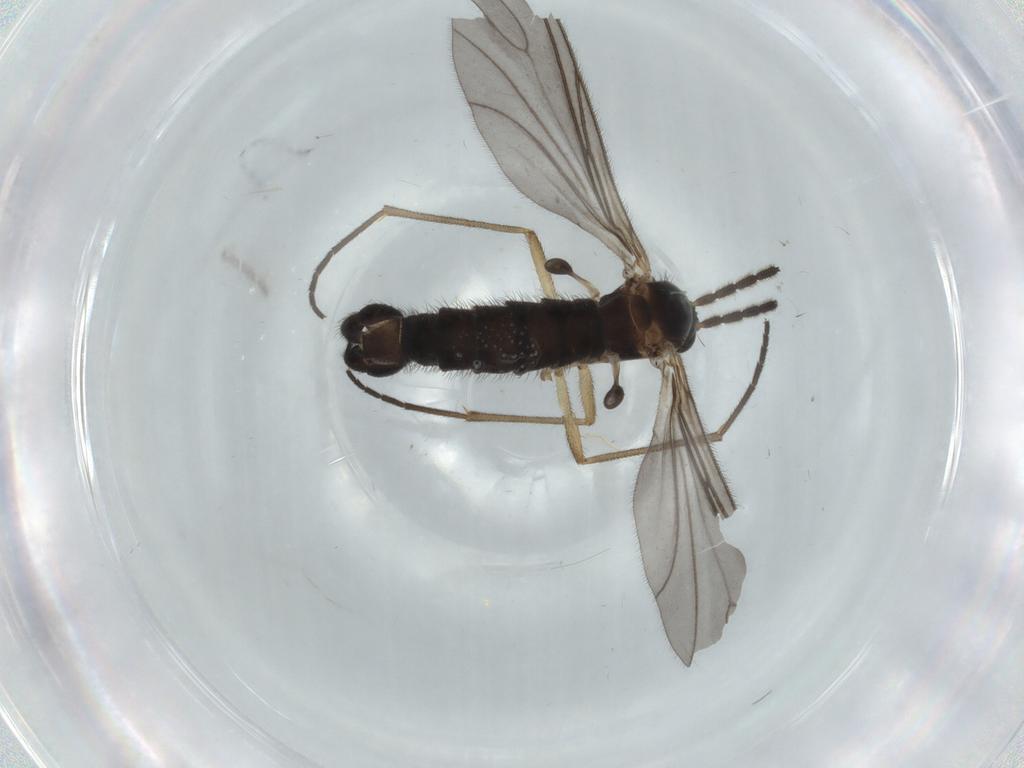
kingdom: Animalia
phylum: Arthropoda
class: Insecta
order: Diptera
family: Sciaridae
